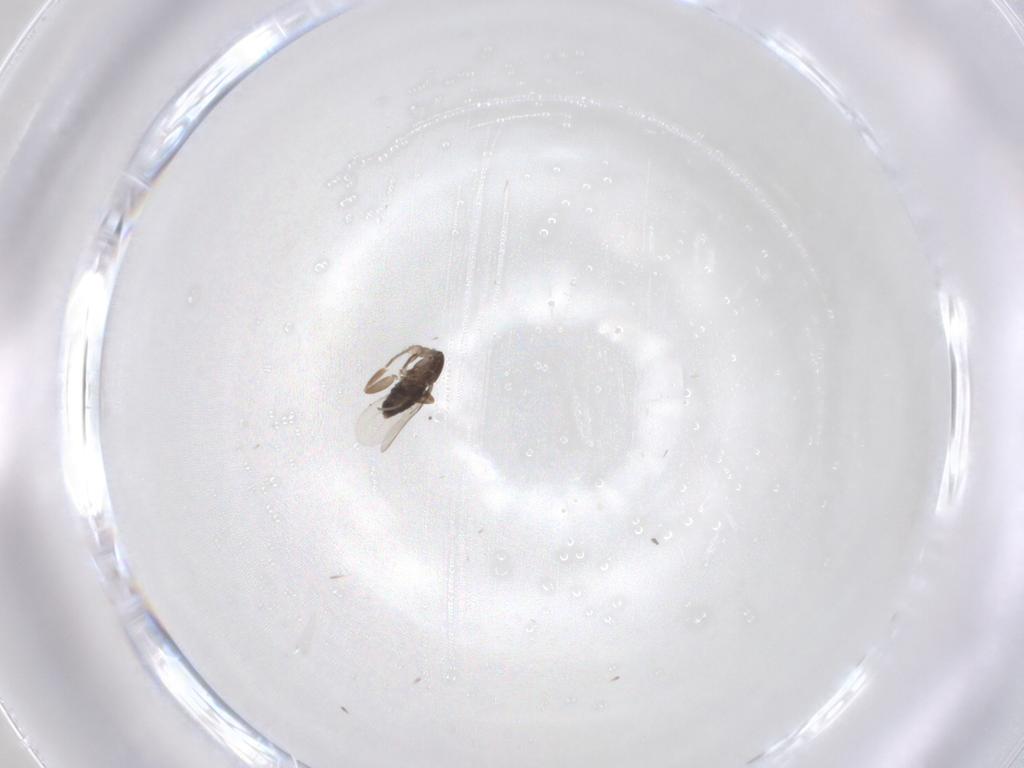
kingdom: Animalia
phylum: Arthropoda
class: Insecta
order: Diptera
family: Phoridae
